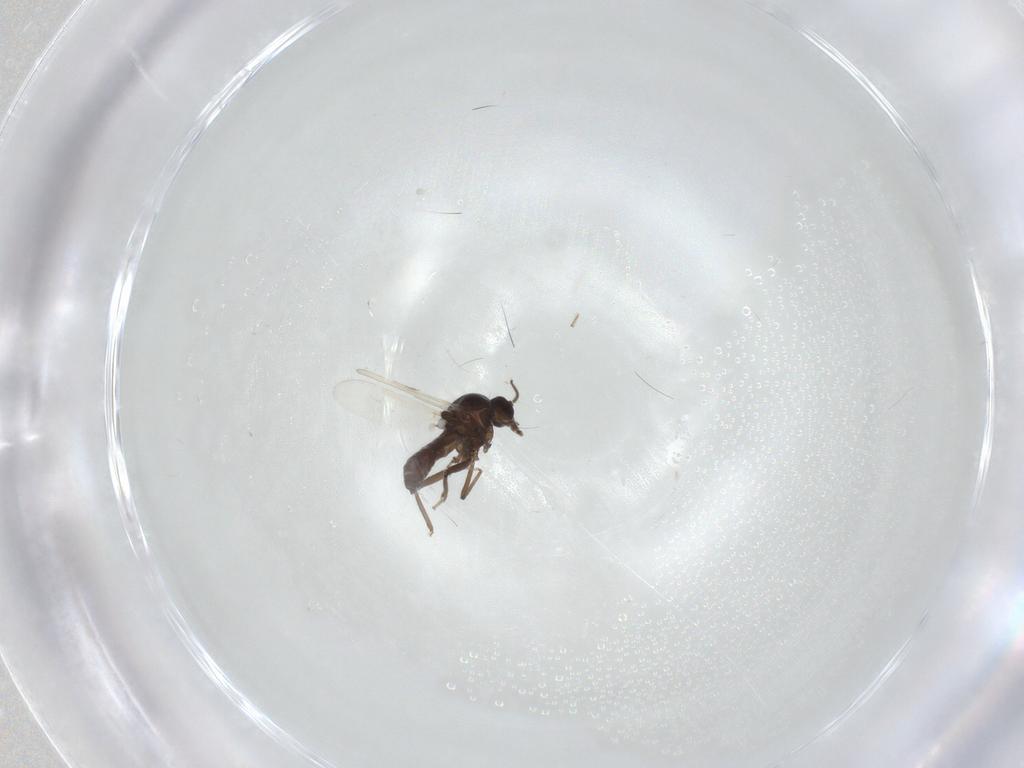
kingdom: Animalia
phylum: Arthropoda
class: Insecta
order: Diptera
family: Ceratopogonidae
